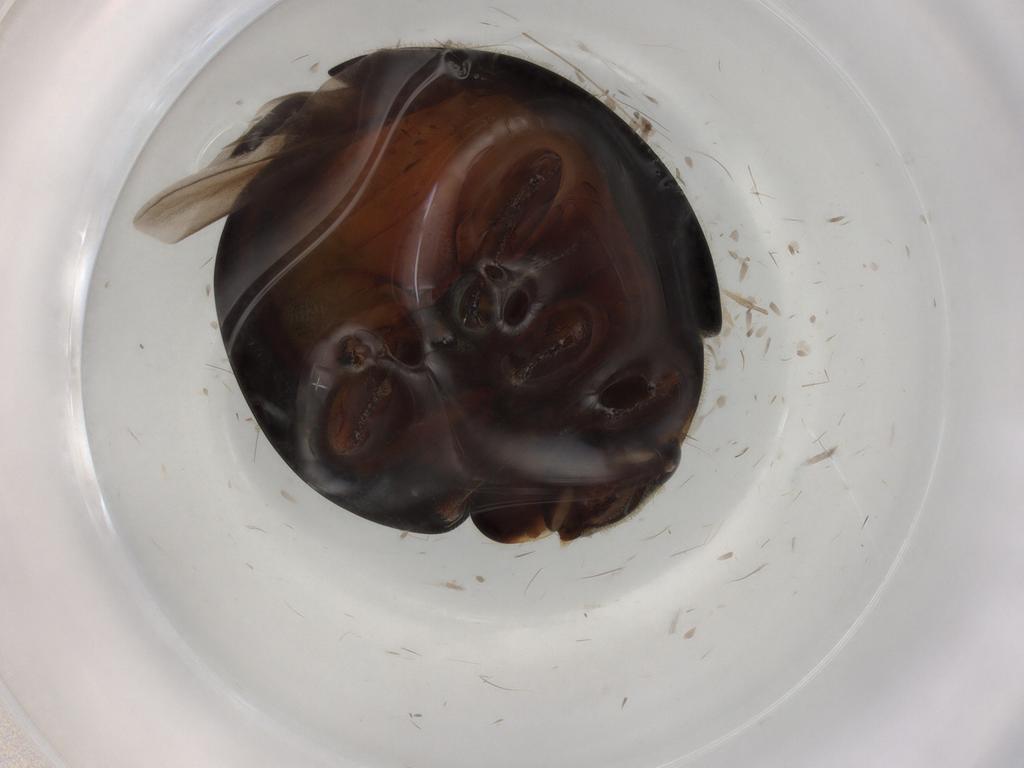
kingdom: Animalia
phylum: Arthropoda
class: Insecta
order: Coleoptera
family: Coccinellidae
